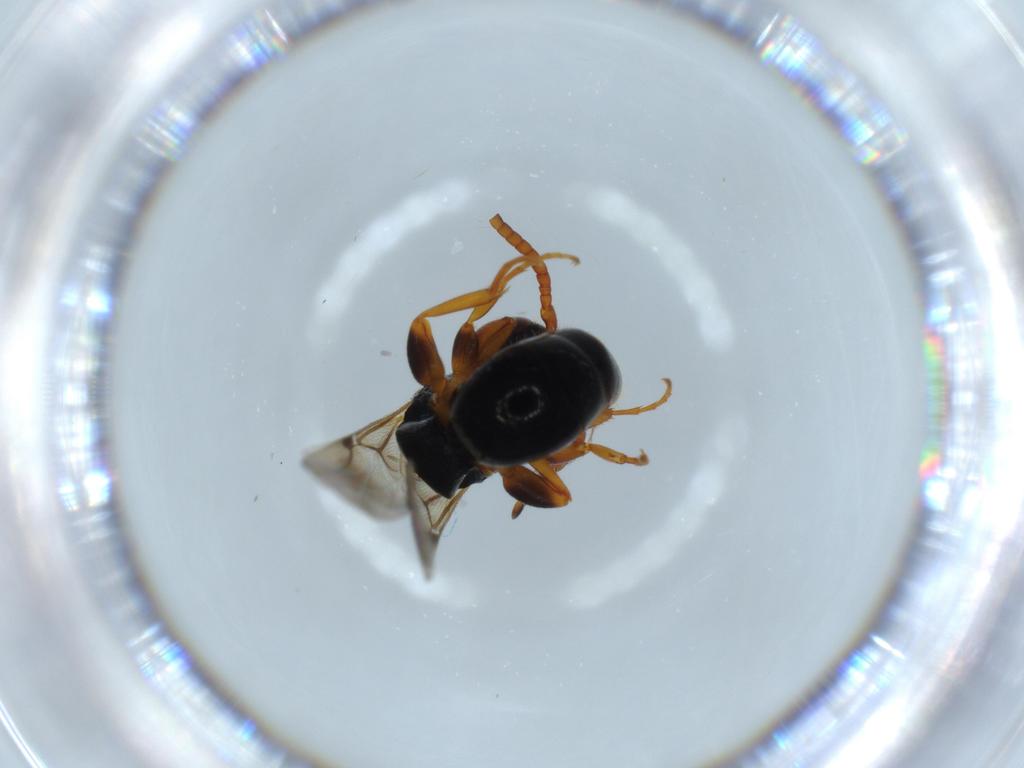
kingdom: Animalia
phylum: Arthropoda
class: Insecta
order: Hymenoptera
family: Bethylidae
